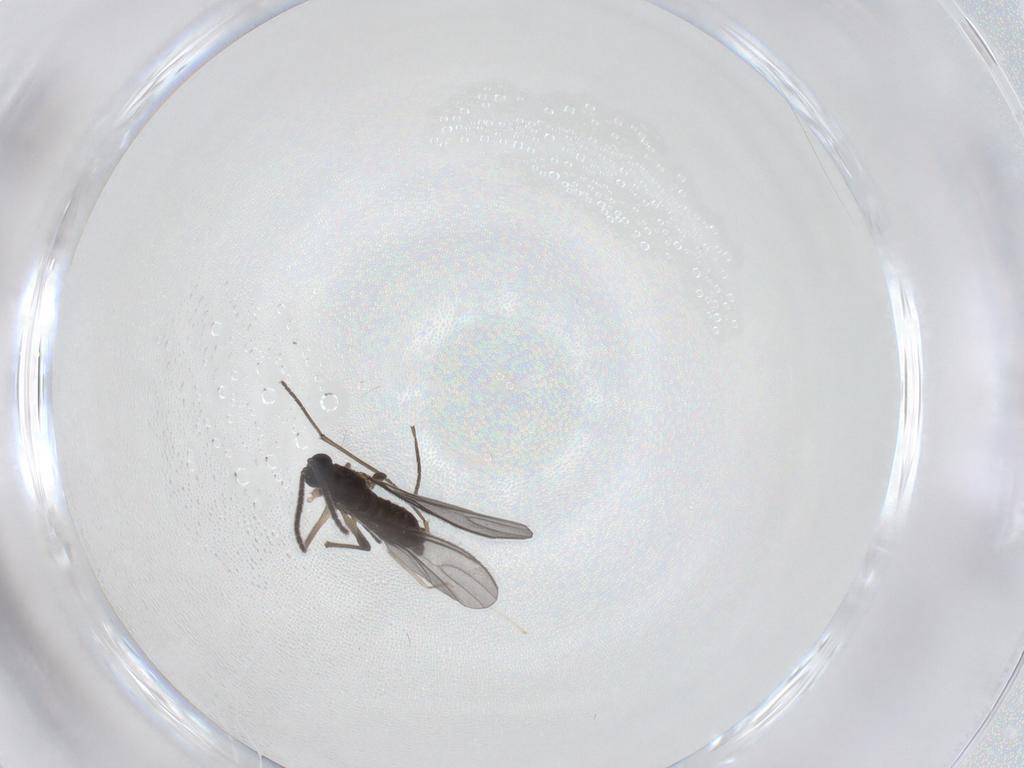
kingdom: Animalia
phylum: Arthropoda
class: Insecta
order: Diptera
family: Sciaridae
